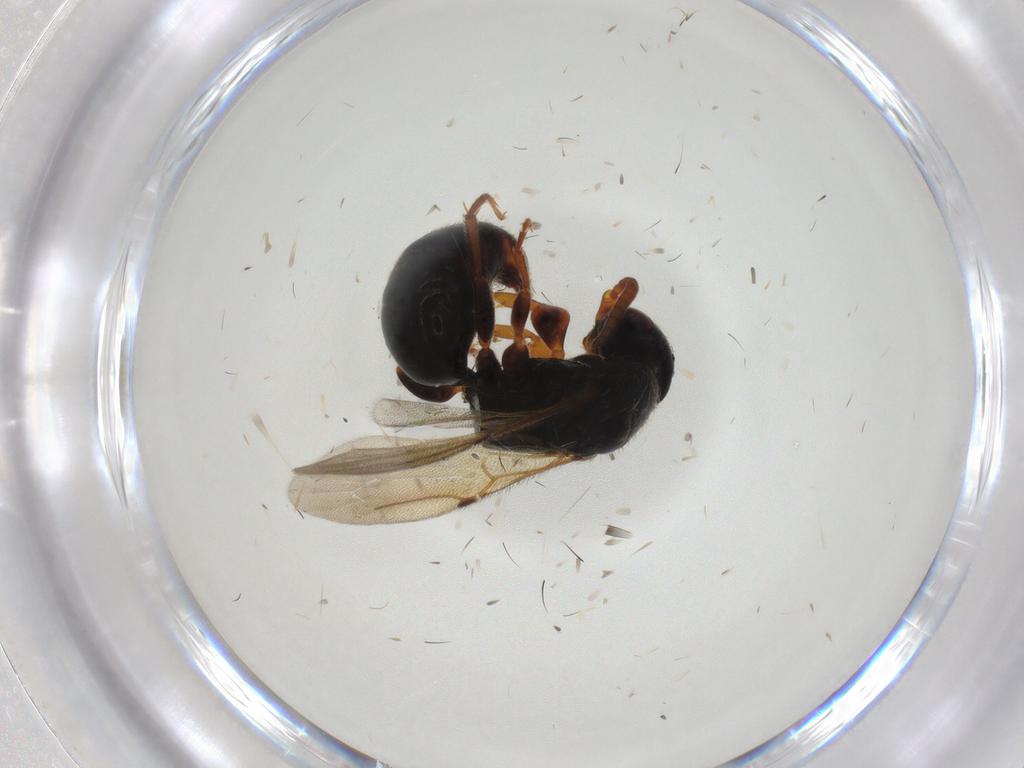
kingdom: Animalia
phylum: Arthropoda
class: Insecta
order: Hymenoptera
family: Bethylidae
